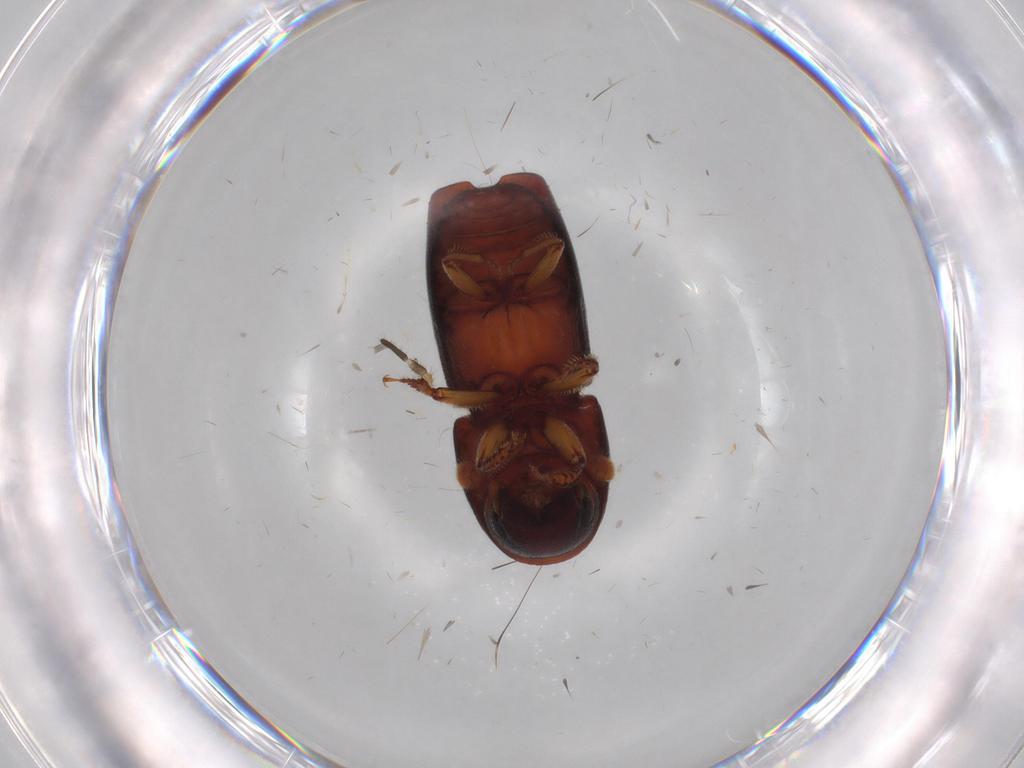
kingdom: Animalia
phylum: Arthropoda
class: Insecta
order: Coleoptera
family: Curculionidae
